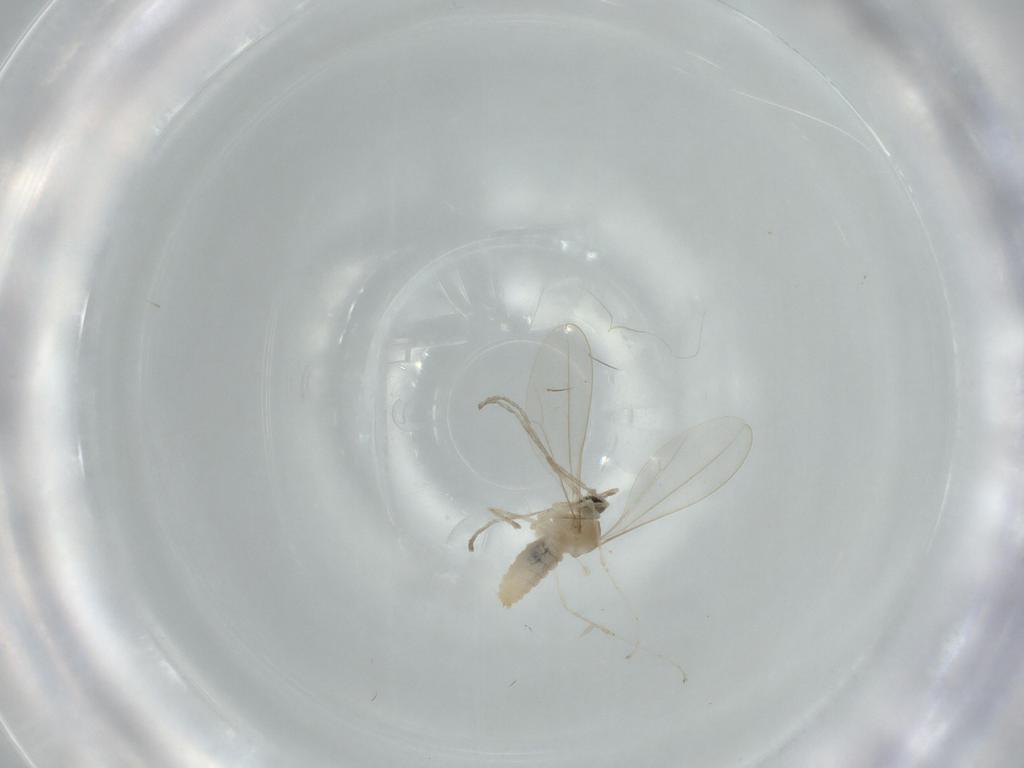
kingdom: Animalia
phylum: Arthropoda
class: Insecta
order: Diptera
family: Cecidomyiidae
